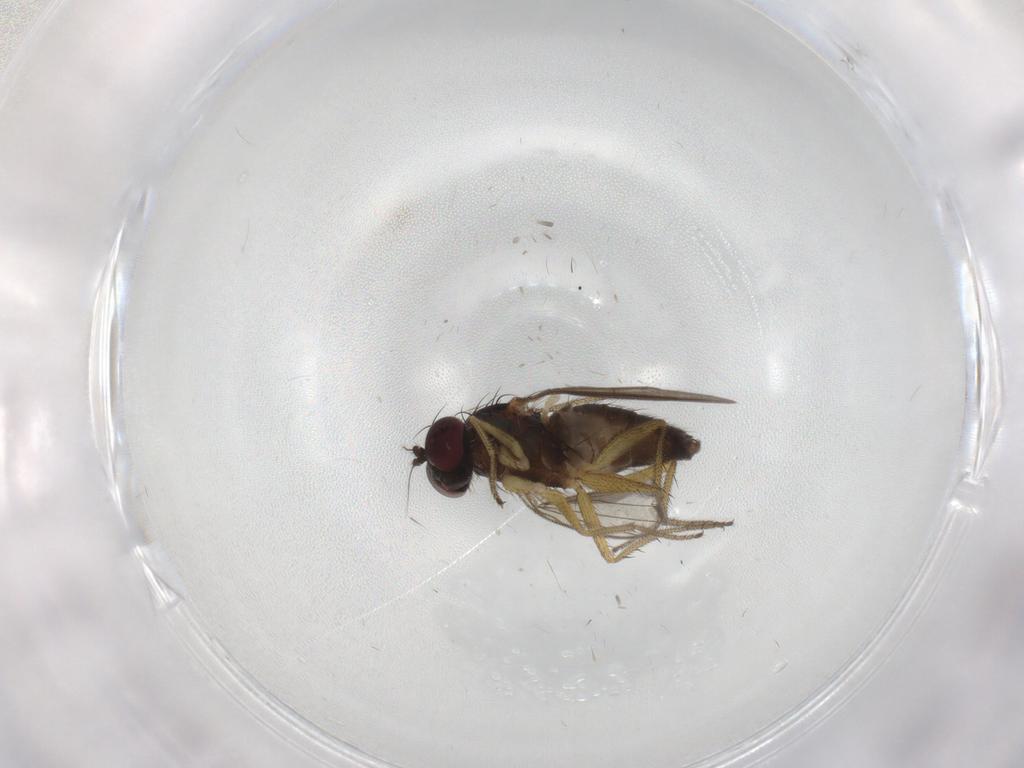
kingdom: Animalia
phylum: Arthropoda
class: Insecta
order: Diptera
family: Dolichopodidae
